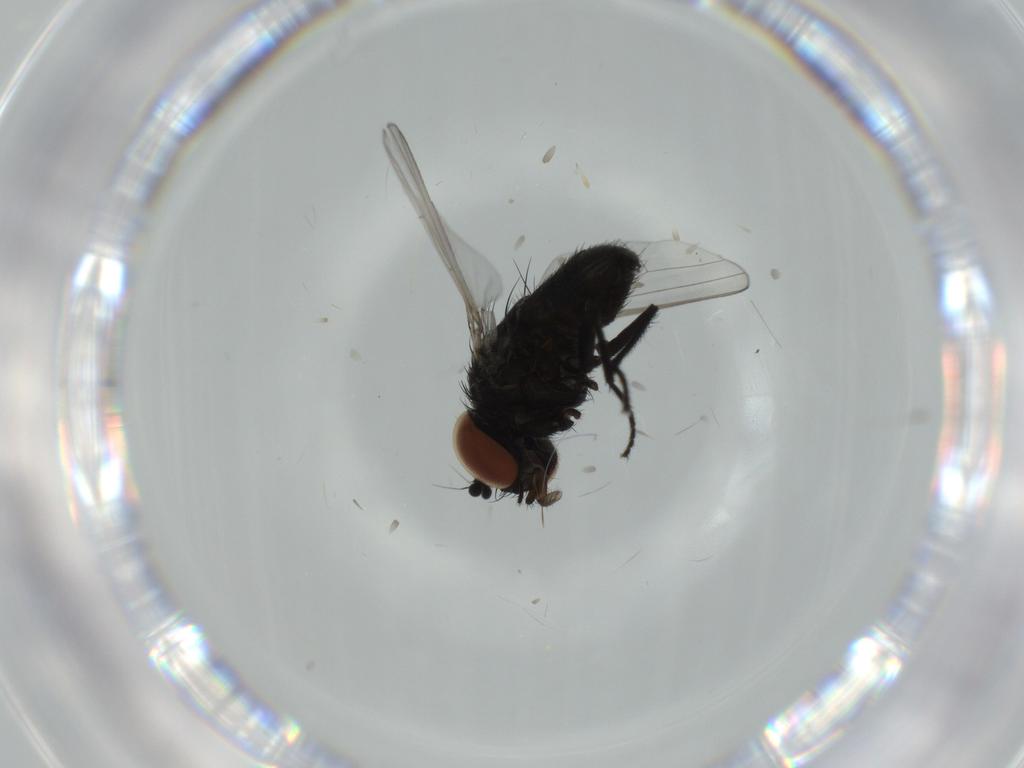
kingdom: Animalia
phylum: Arthropoda
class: Insecta
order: Diptera
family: Milichiidae
